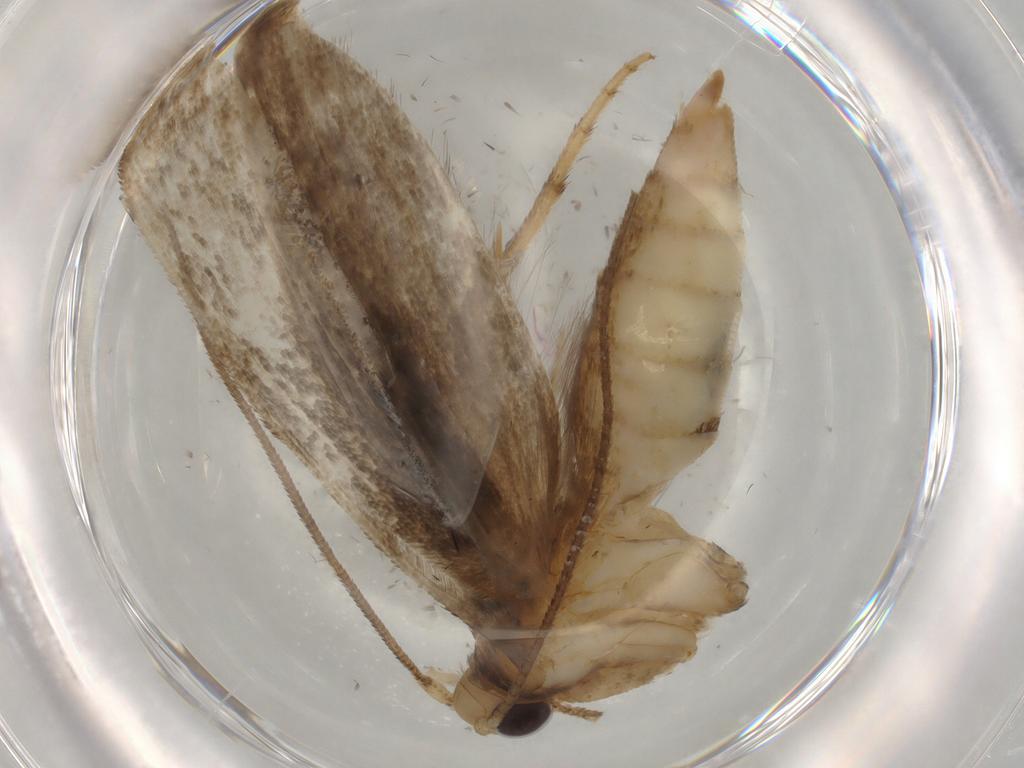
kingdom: Animalia
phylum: Arthropoda
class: Insecta
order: Lepidoptera
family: Yponomeutidae
